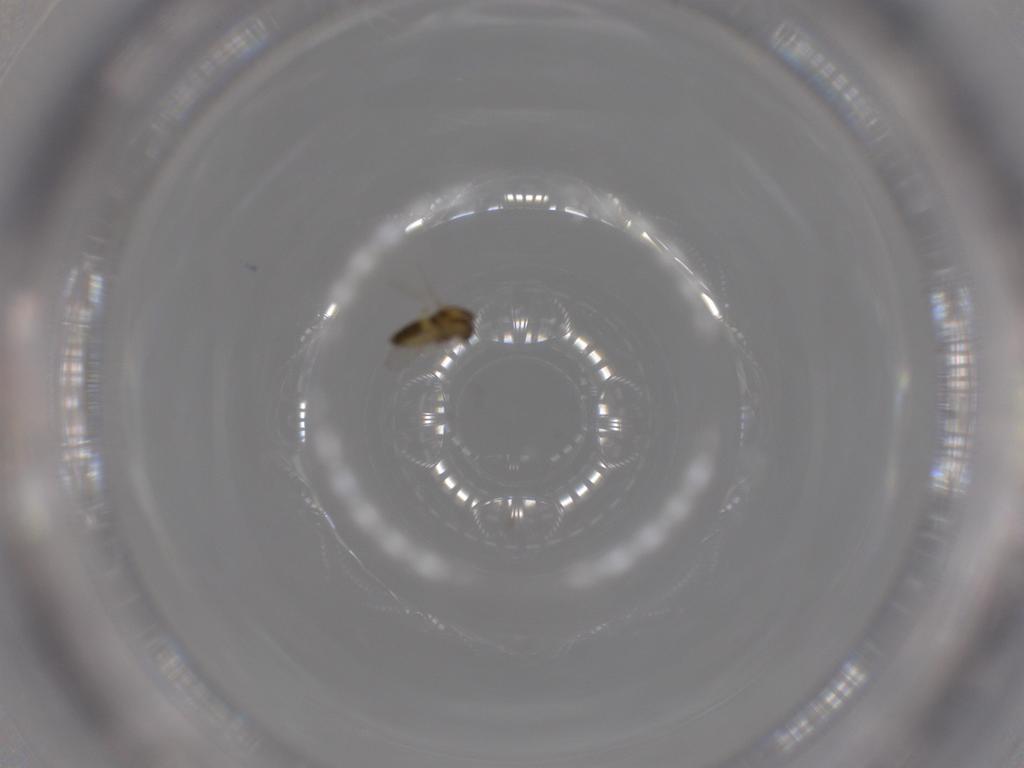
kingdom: Animalia
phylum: Arthropoda
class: Insecta
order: Diptera
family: Chironomidae
